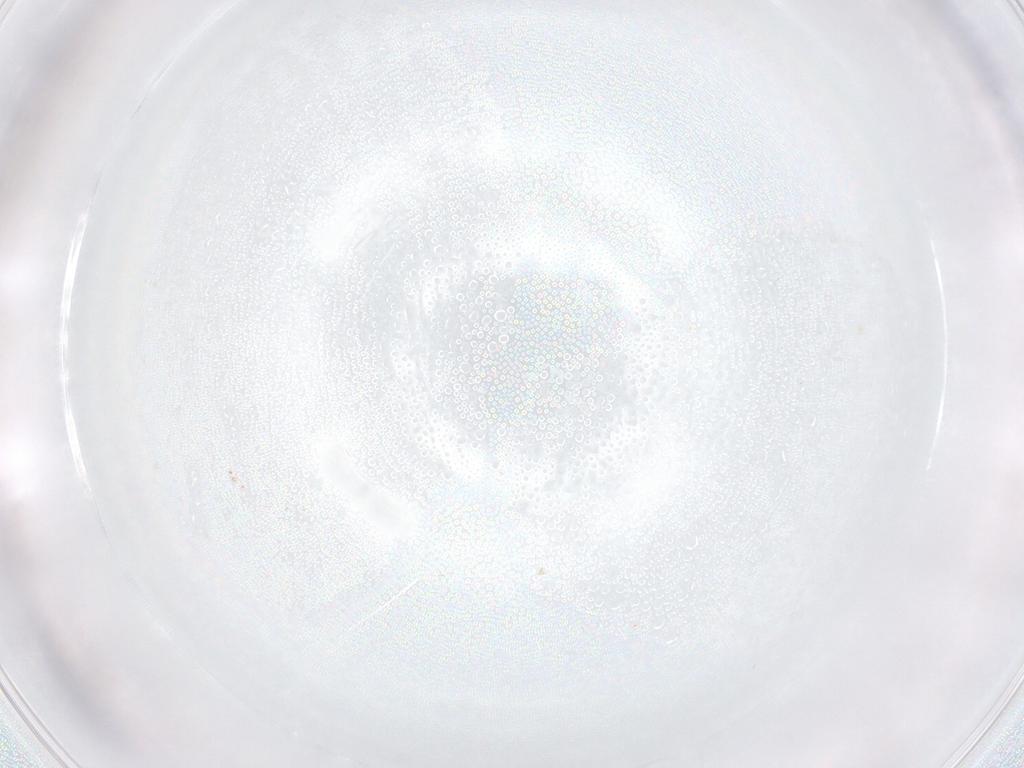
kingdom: Animalia
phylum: Arthropoda
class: Insecta
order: Diptera
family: Sciaridae
